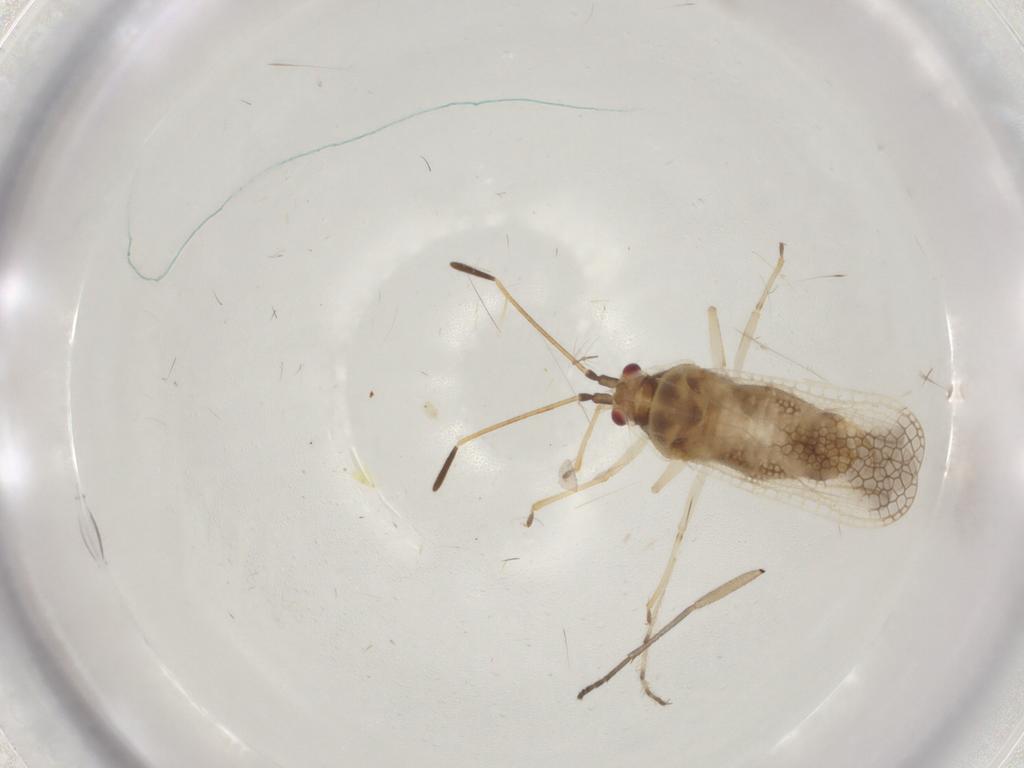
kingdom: Animalia
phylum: Arthropoda
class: Insecta
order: Hemiptera
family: Tingidae
